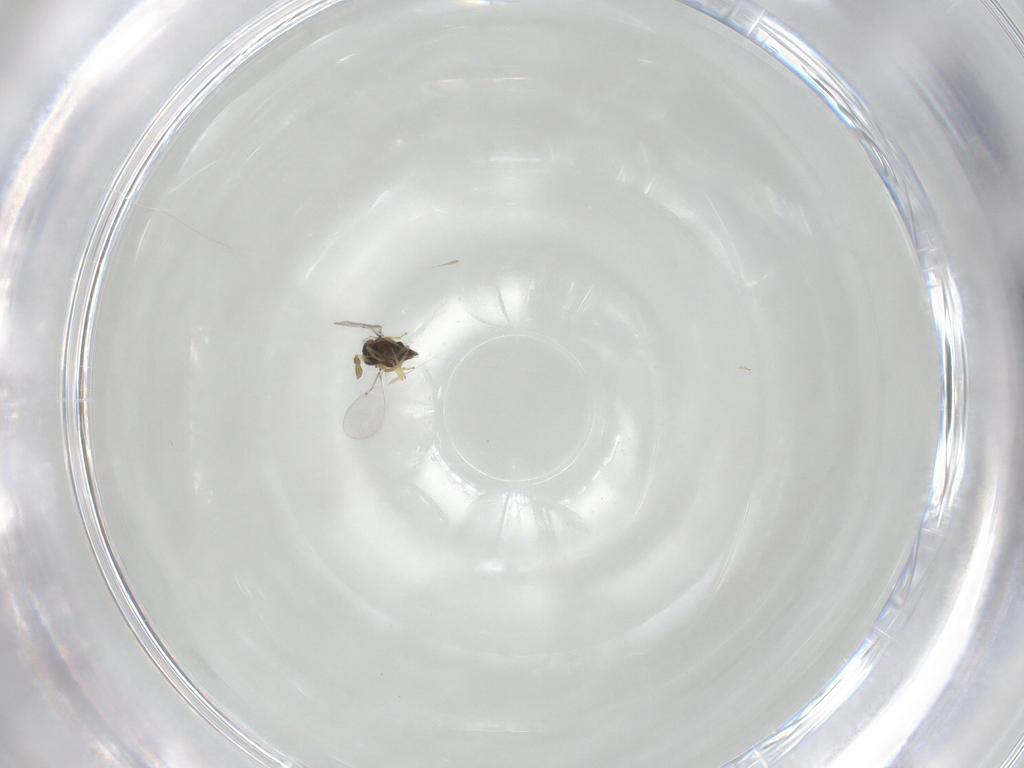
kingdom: Animalia
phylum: Arthropoda
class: Insecta
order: Hymenoptera
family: Encyrtidae
